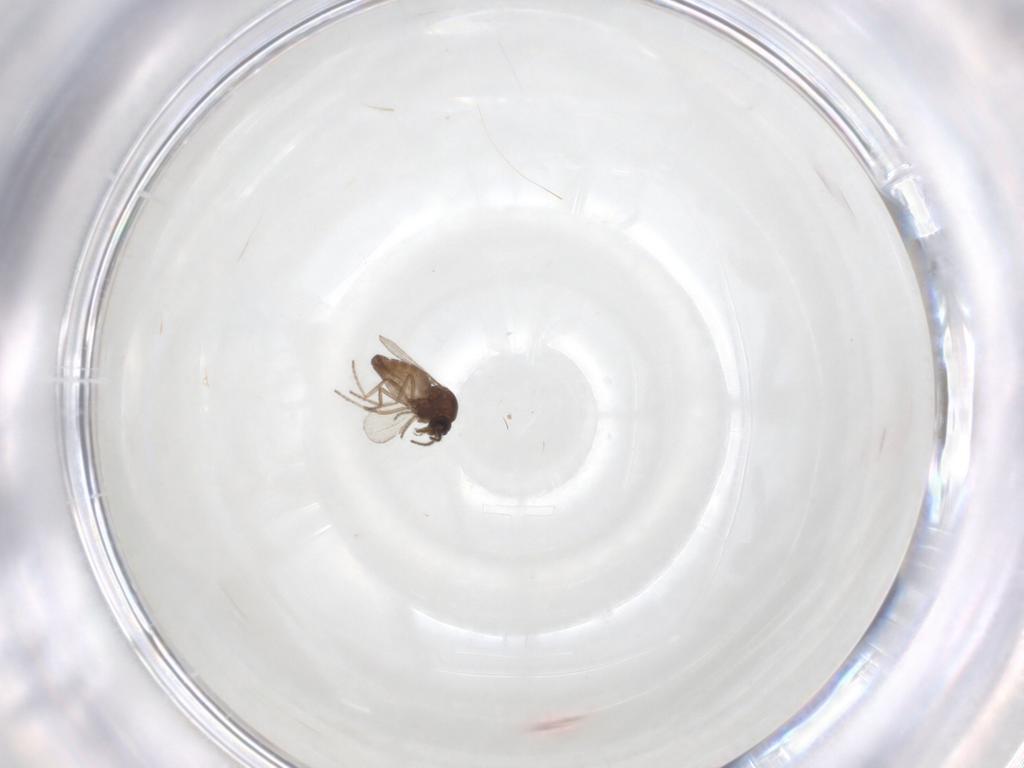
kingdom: Animalia
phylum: Arthropoda
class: Insecta
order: Diptera
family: Ceratopogonidae
